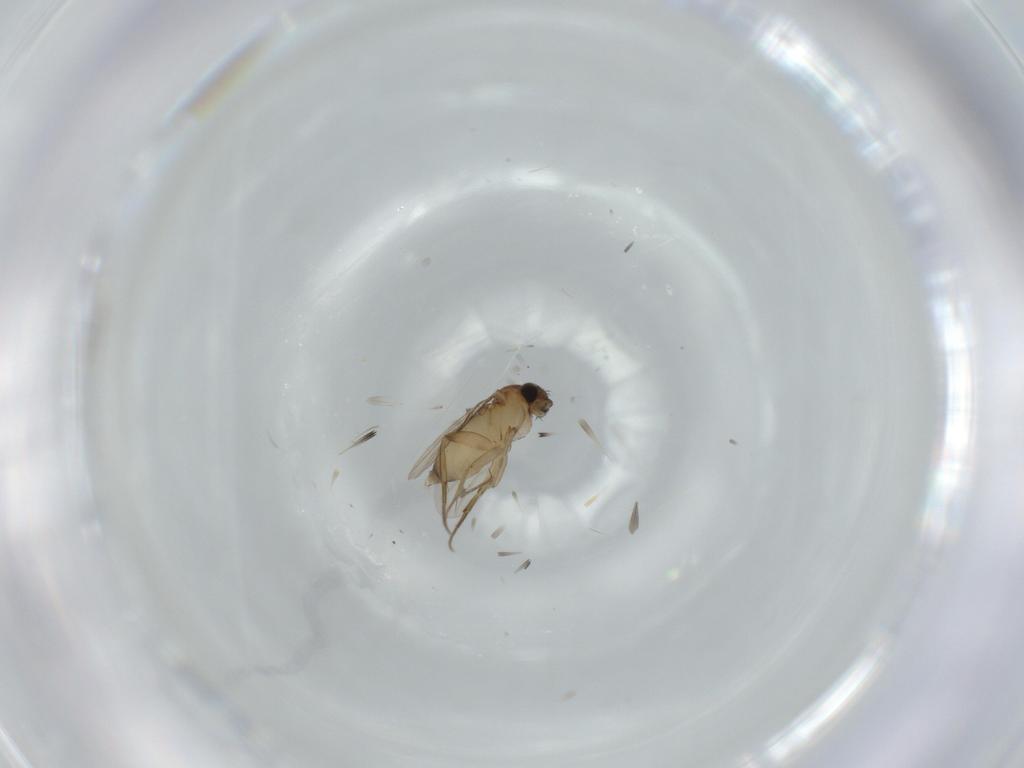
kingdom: Animalia
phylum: Arthropoda
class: Insecta
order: Diptera
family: Phoridae
